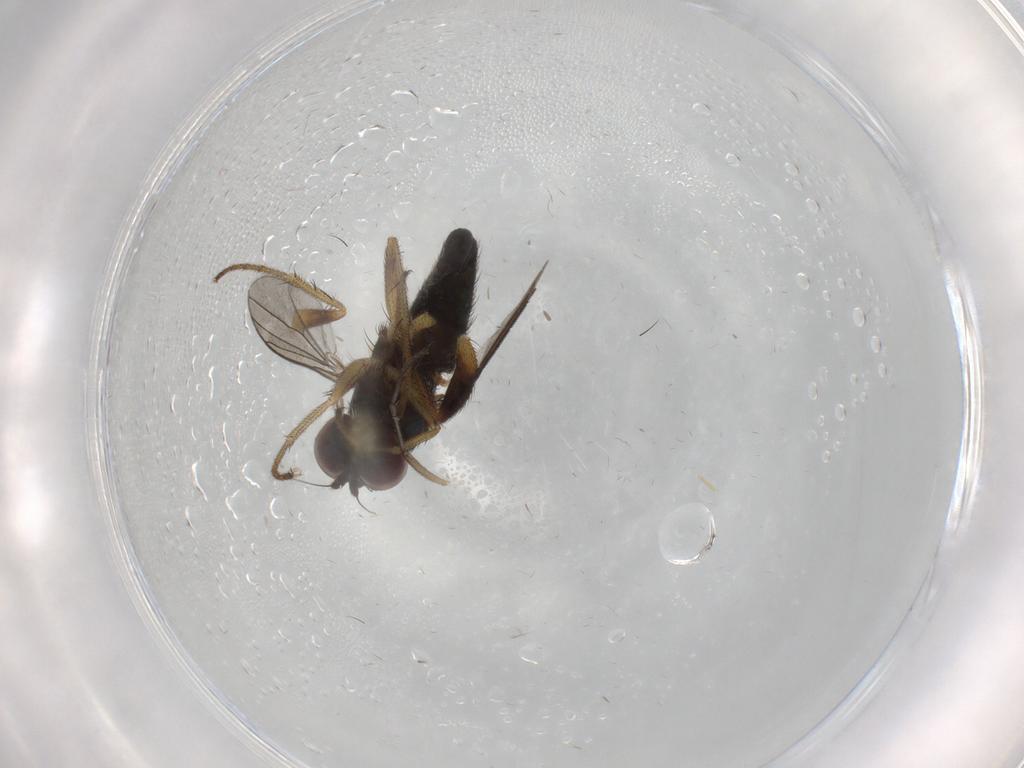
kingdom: Animalia
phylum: Arthropoda
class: Insecta
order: Diptera
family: Dolichopodidae
